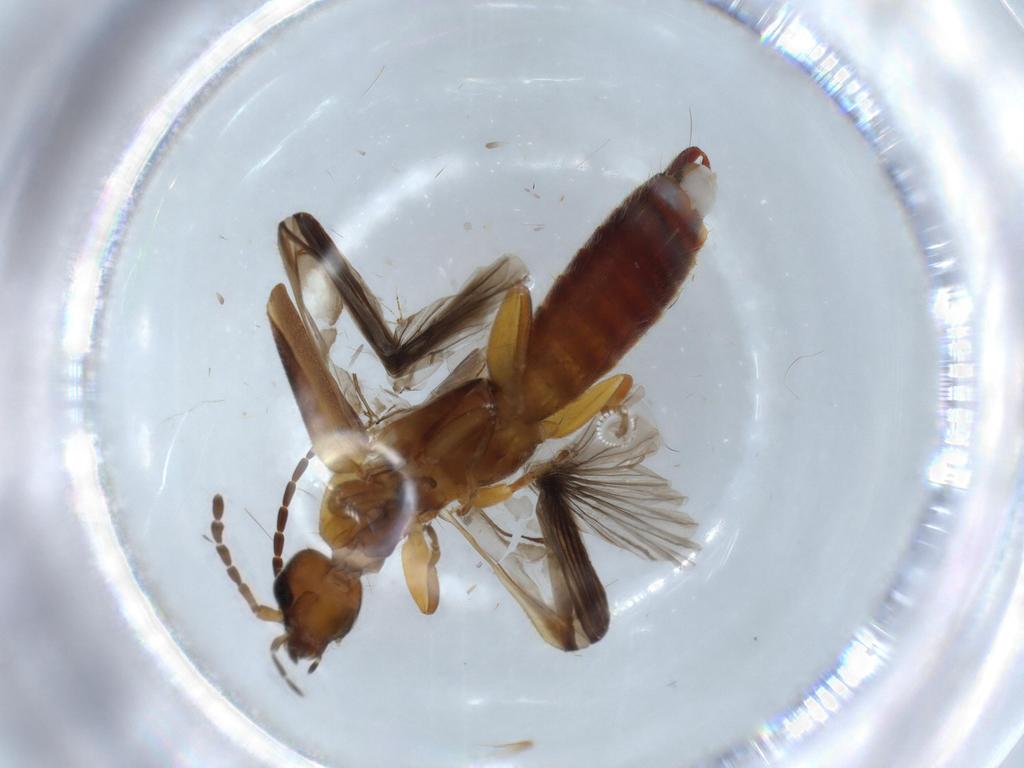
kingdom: Animalia
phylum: Arthropoda
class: Insecta
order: Dermaptera
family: Forficulidae
